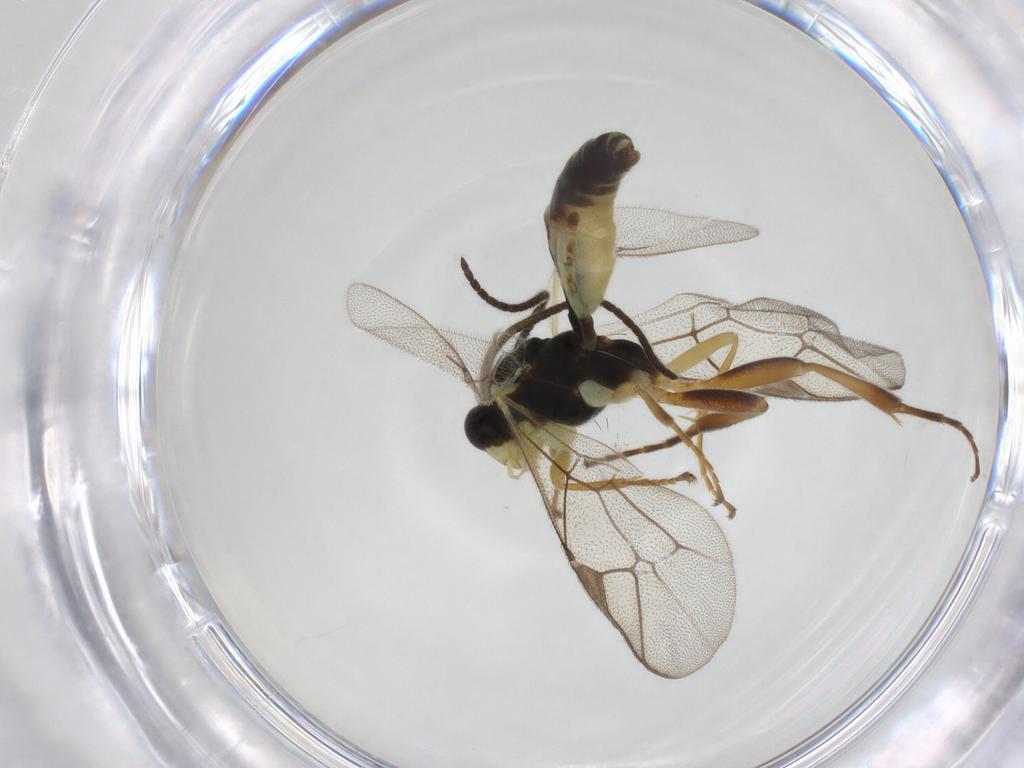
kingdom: Animalia
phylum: Arthropoda
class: Insecta
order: Hymenoptera
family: Ichneumonidae
